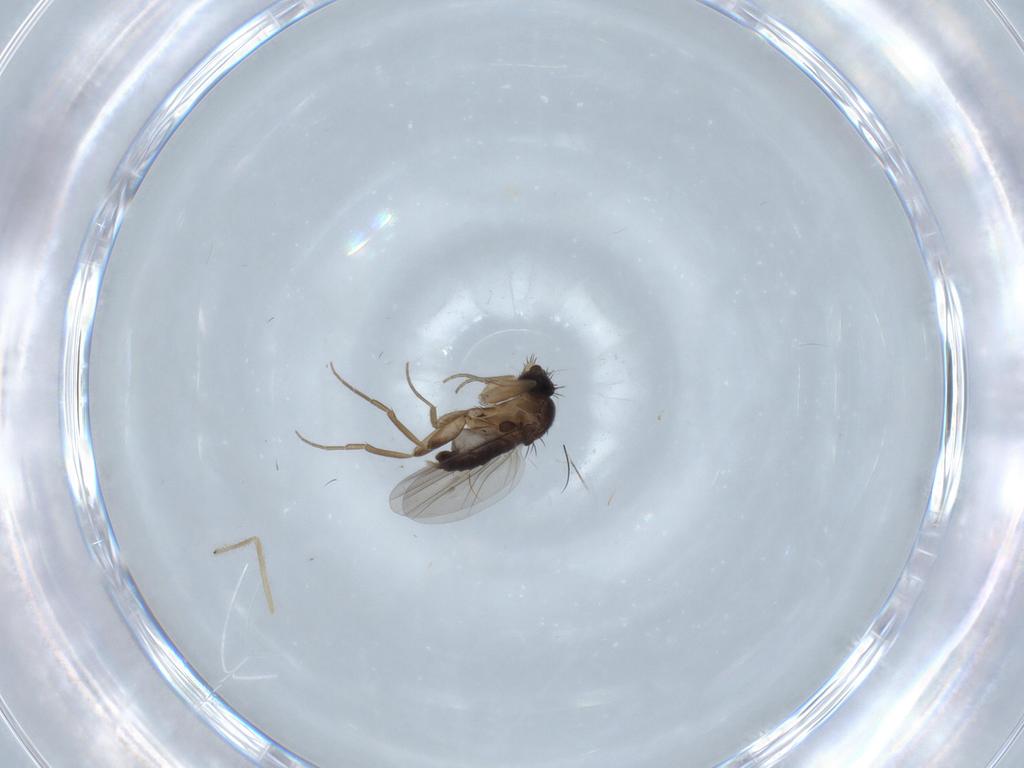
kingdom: Animalia
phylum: Arthropoda
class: Insecta
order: Diptera
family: Phoridae
